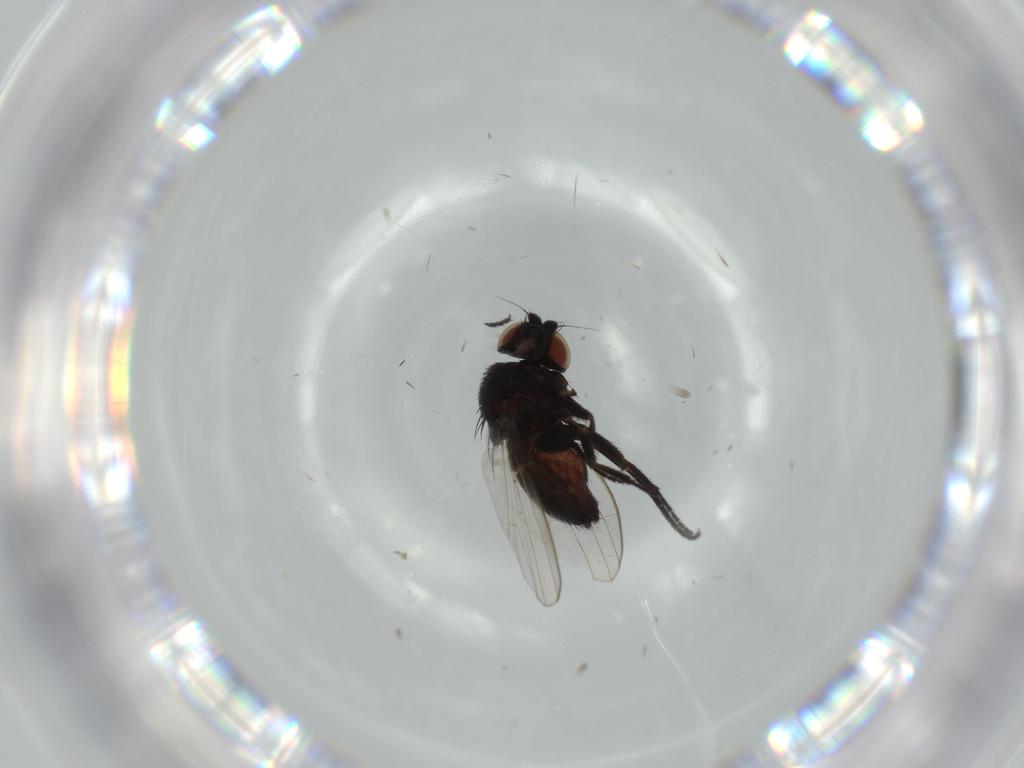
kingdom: Animalia
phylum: Arthropoda
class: Insecta
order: Diptera
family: Milichiidae
